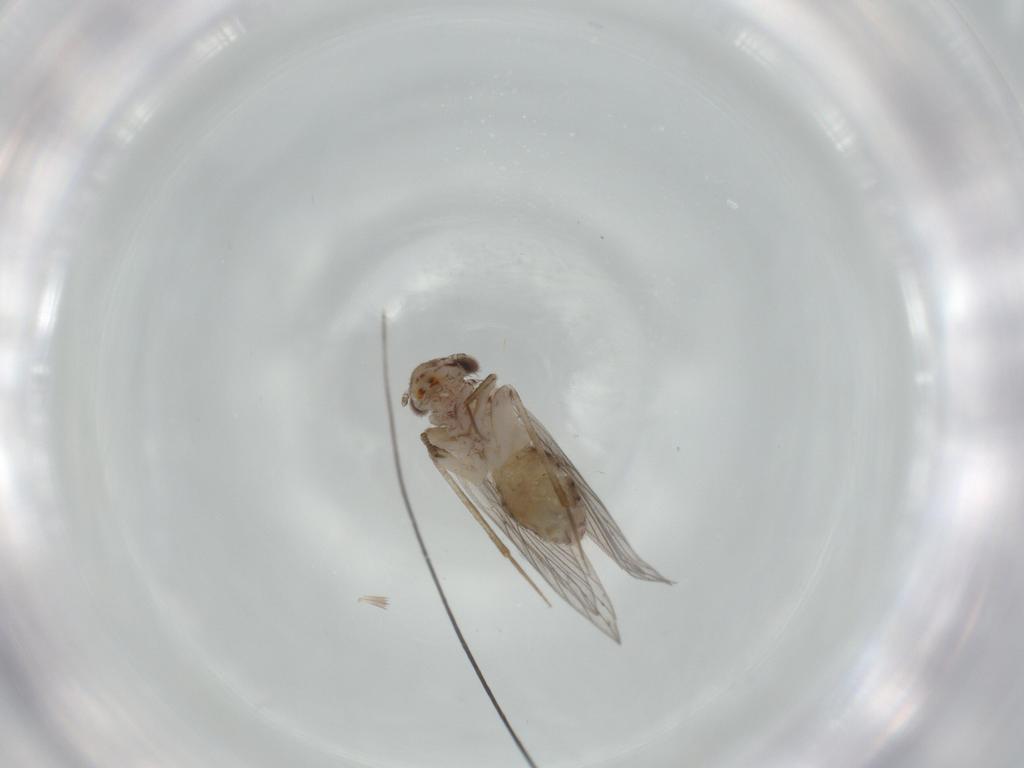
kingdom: Animalia
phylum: Arthropoda
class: Insecta
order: Psocodea
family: Lepidopsocidae
